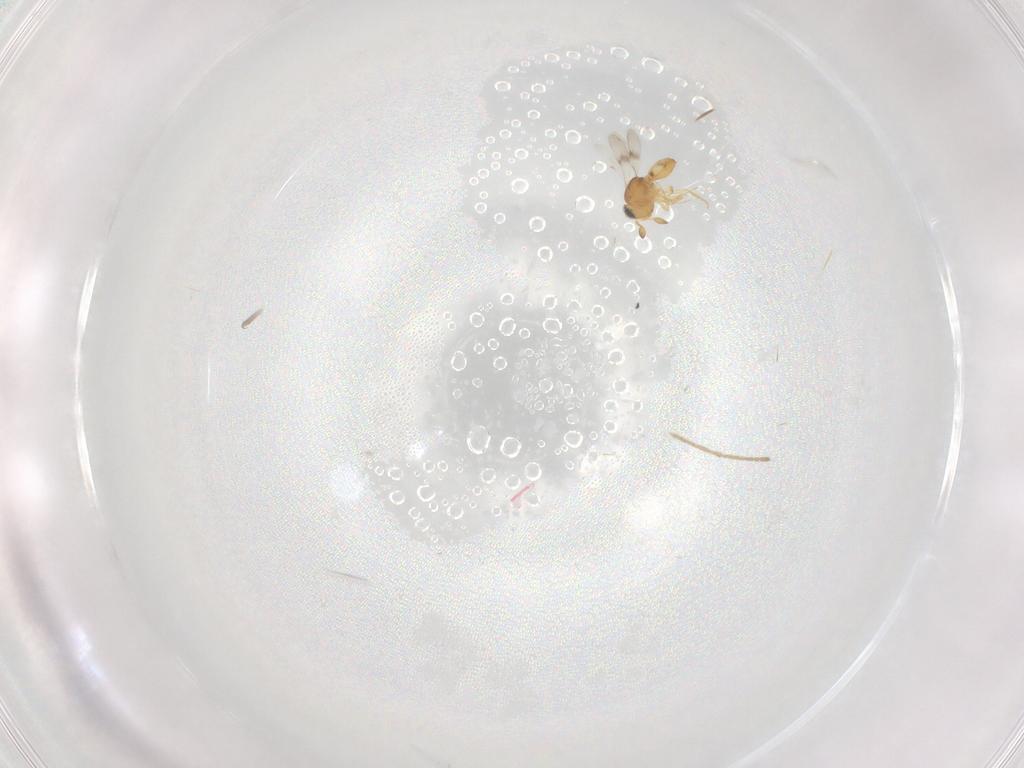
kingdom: Animalia
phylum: Arthropoda
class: Insecta
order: Diptera
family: Phoridae
